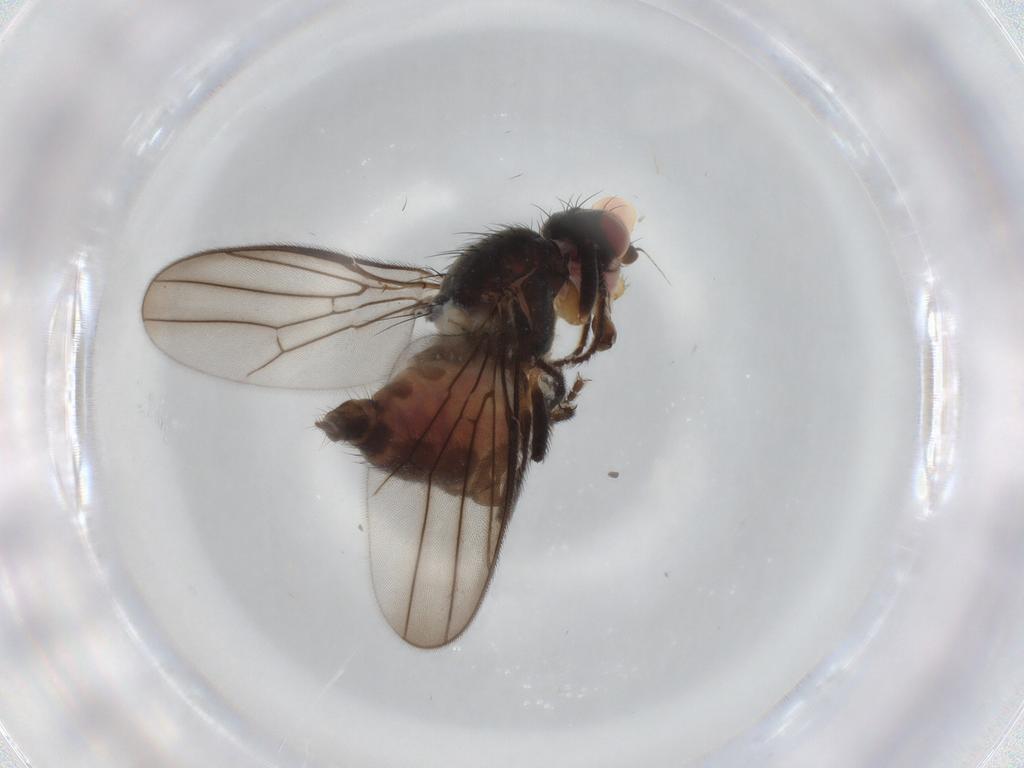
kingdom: Animalia
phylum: Arthropoda
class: Insecta
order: Diptera
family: Chloropidae
